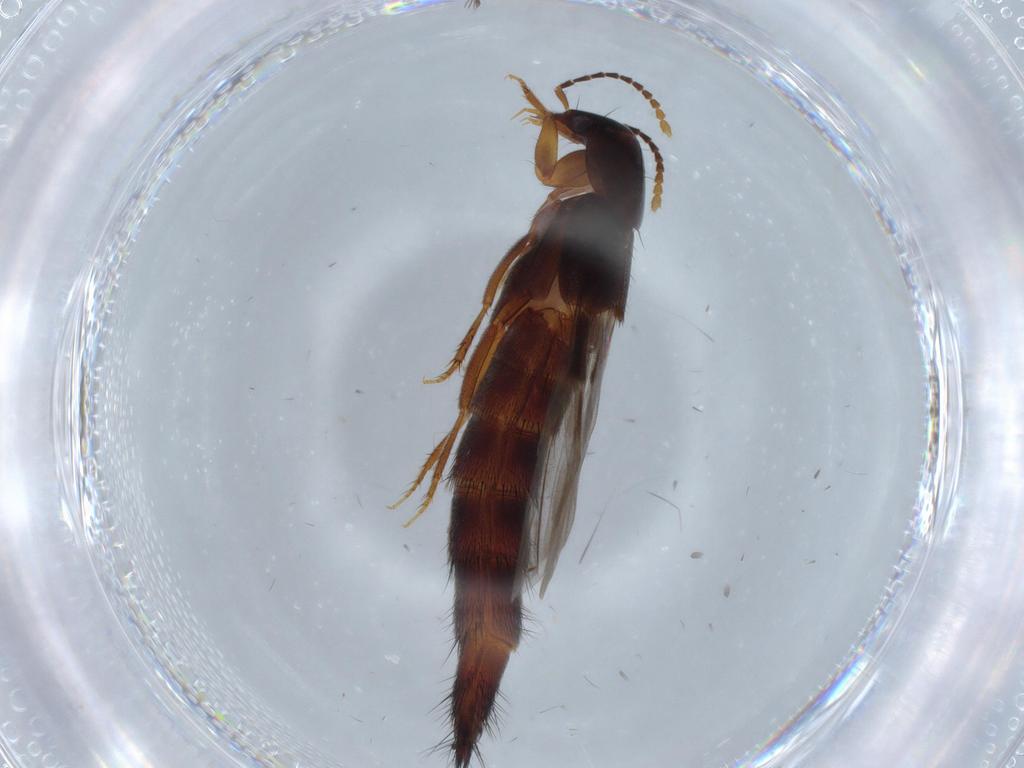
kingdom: Animalia
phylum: Arthropoda
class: Insecta
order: Coleoptera
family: Staphylinidae
